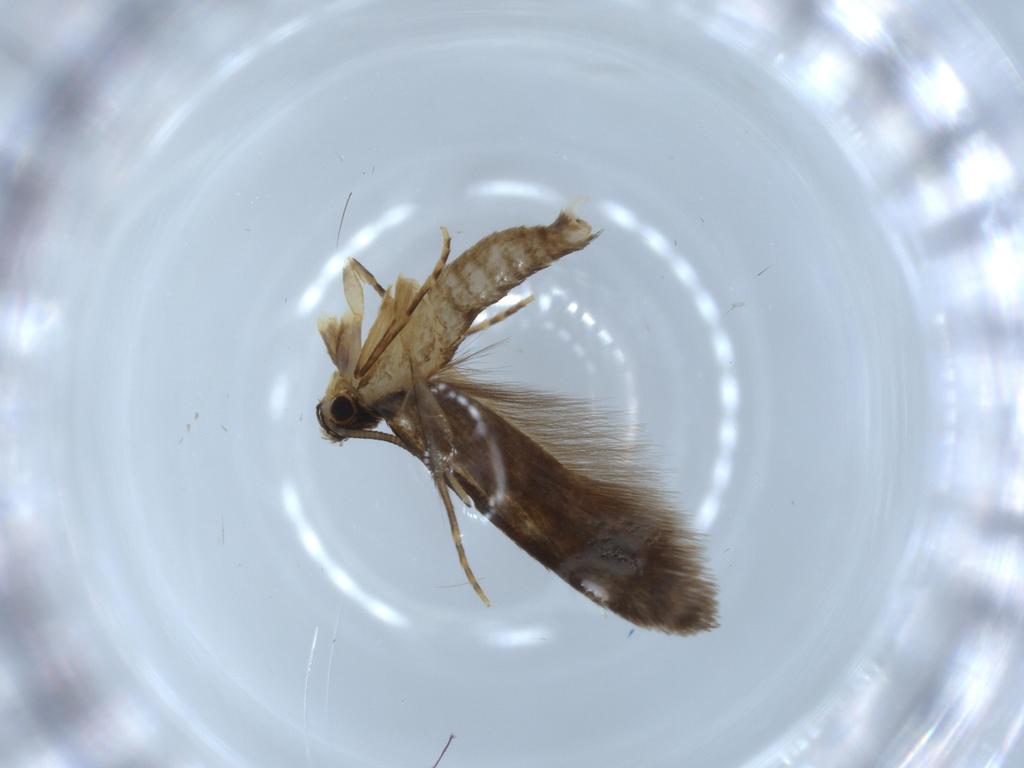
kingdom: Animalia
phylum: Arthropoda
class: Insecta
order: Lepidoptera
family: Tineidae
